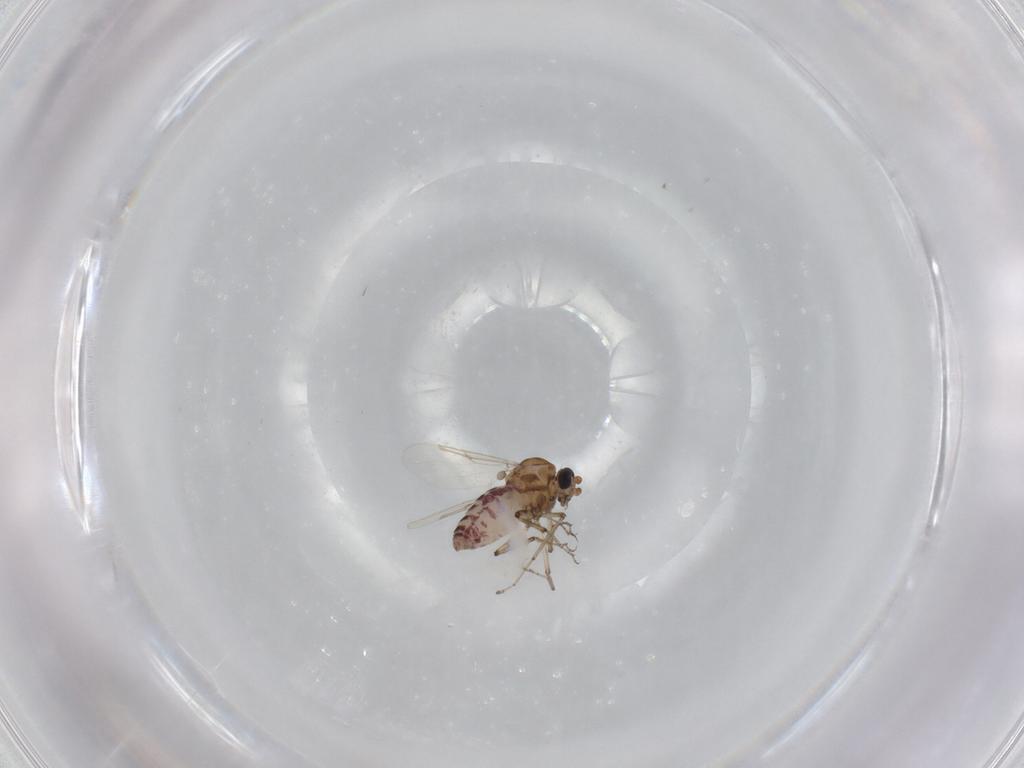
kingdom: Animalia
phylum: Arthropoda
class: Insecta
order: Diptera
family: Ceratopogonidae
